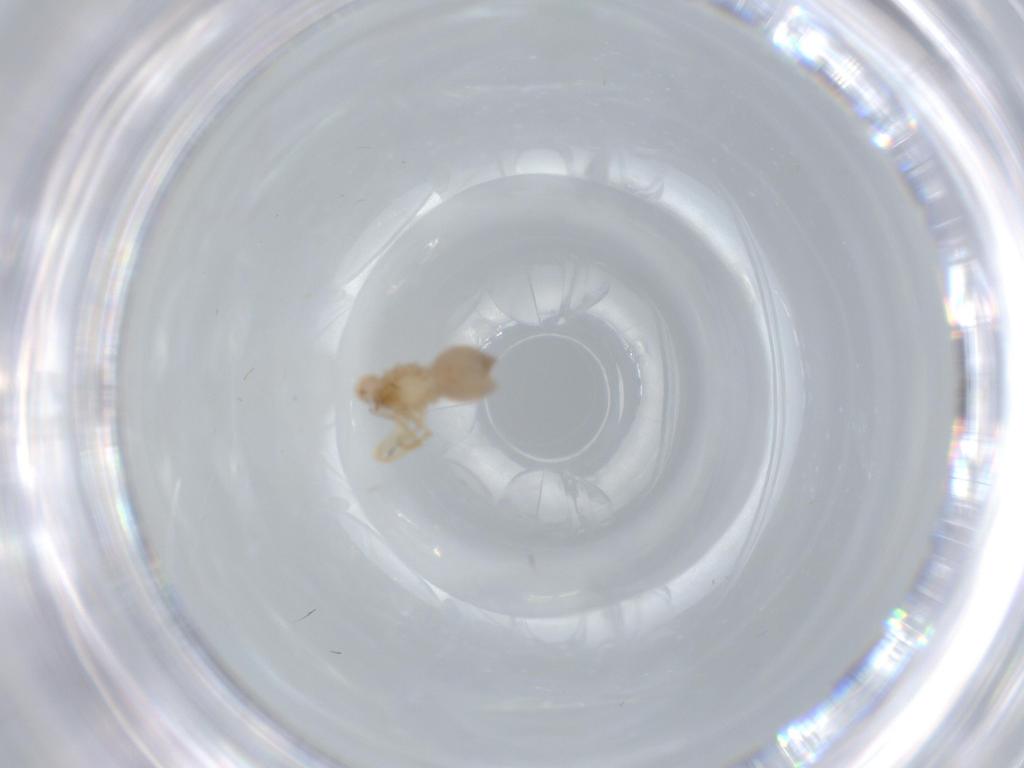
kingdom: Animalia
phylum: Arthropoda
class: Arachnida
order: Araneae
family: Oonopidae
